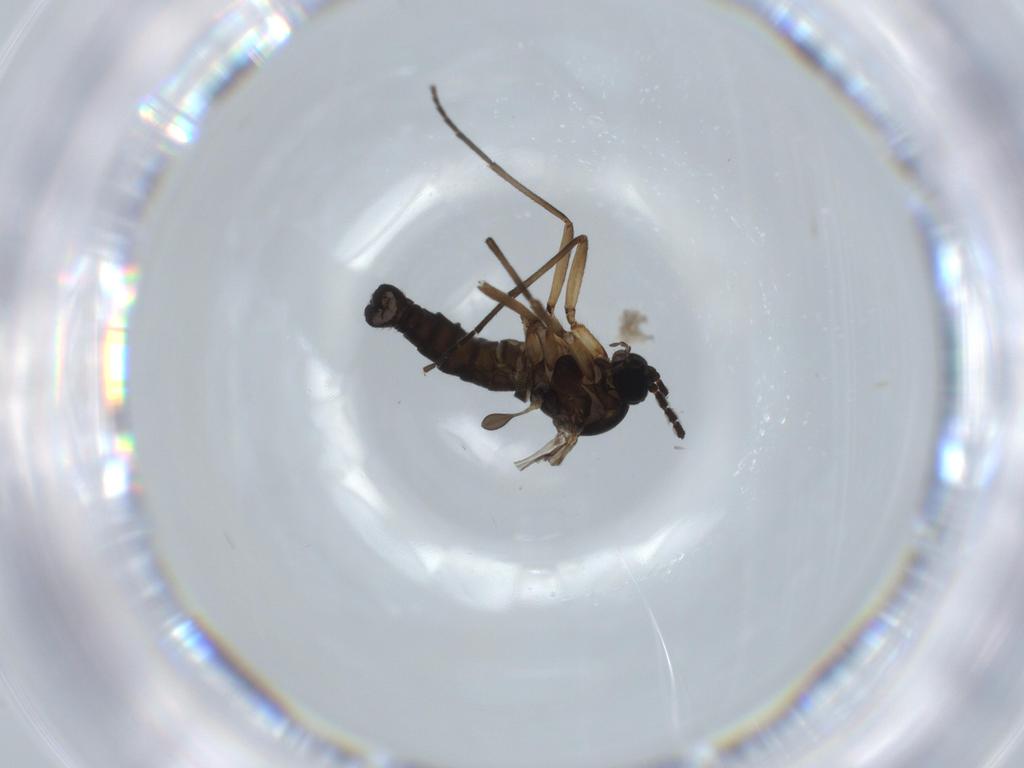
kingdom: Animalia
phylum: Arthropoda
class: Insecta
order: Diptera
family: Sciaridae
